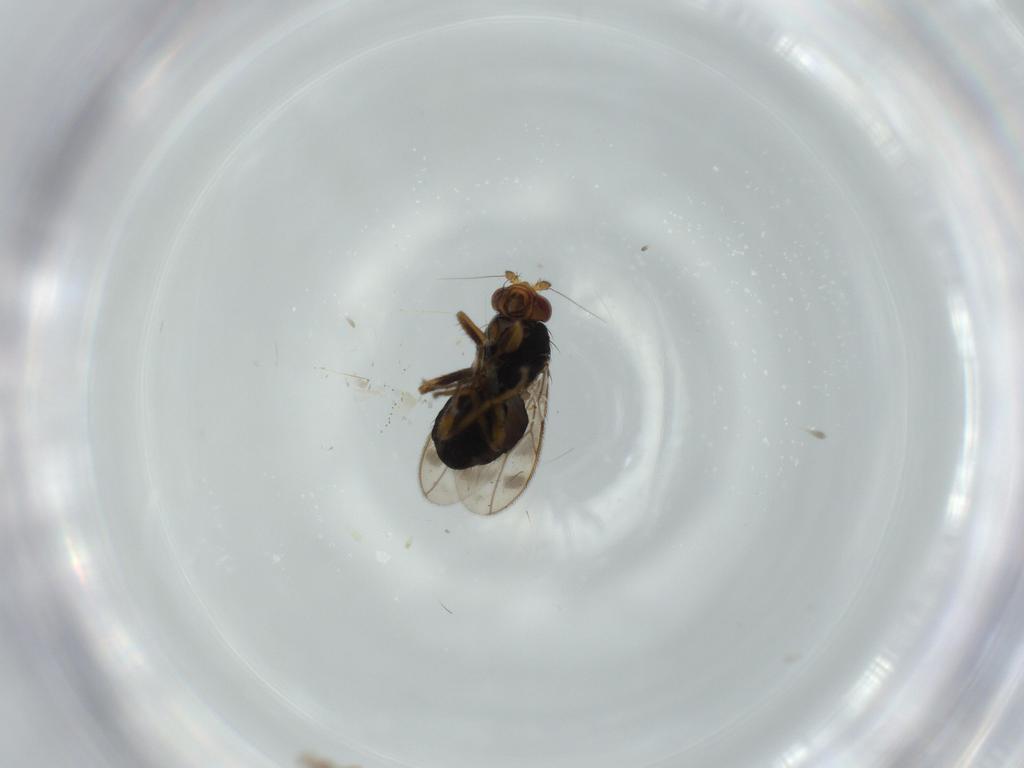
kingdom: Animalia
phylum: Arthropoda
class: Insecta
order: Diptera
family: Sphaeroceridae
